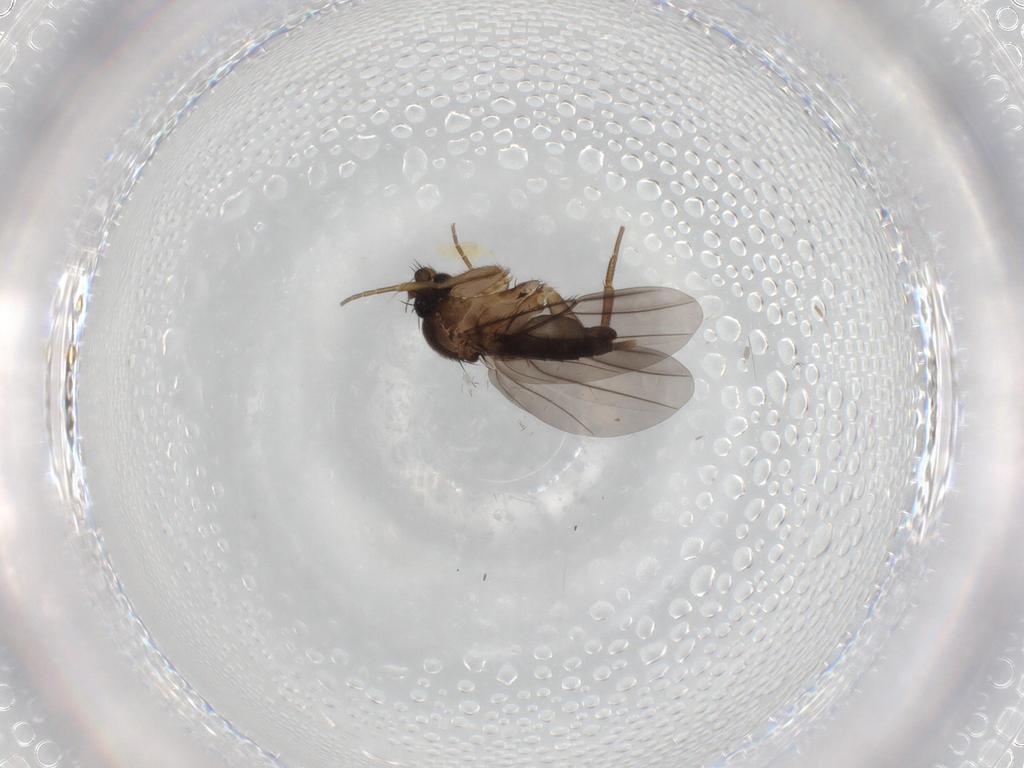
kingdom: Animalia
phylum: Arthropoda
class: Insecta
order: Diptera
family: Phoridae
